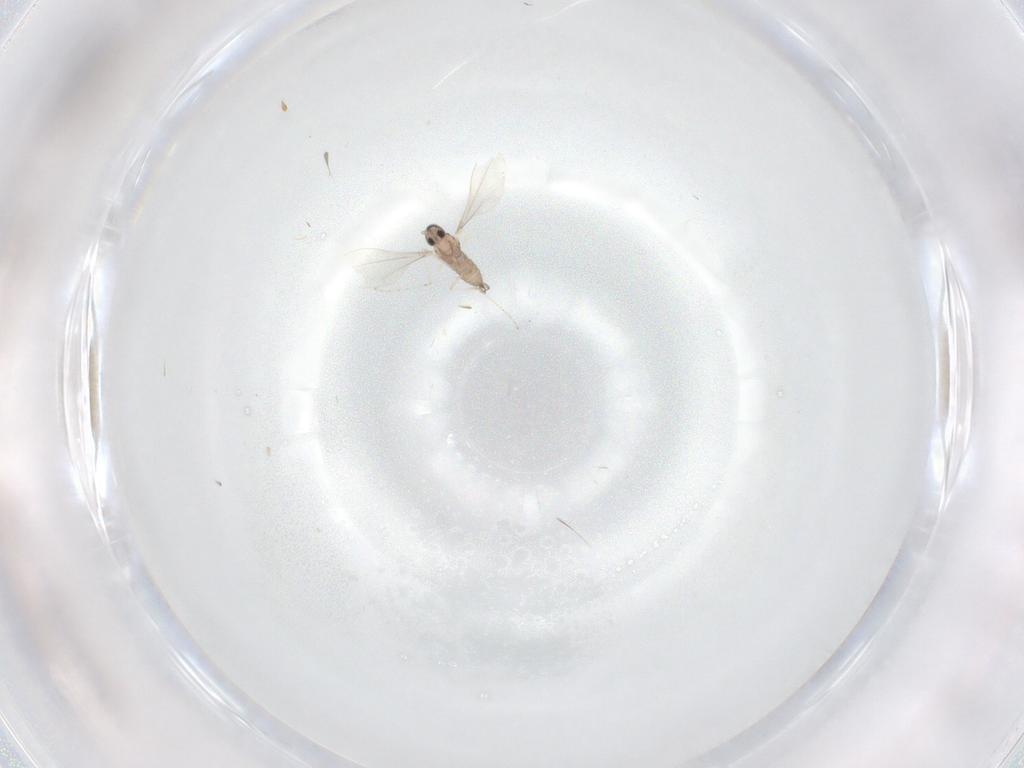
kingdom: Animalia
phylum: Arthropoda
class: Insecta
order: Diptera
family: Cecidomyiidae
